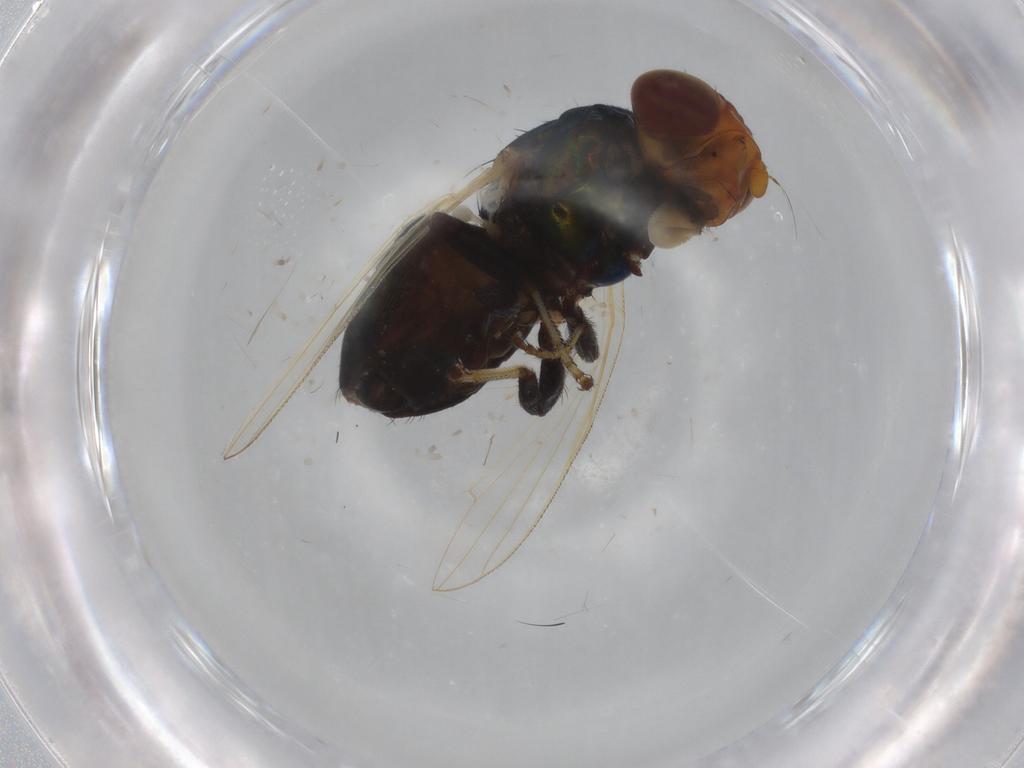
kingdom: Animalia
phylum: Arthropoda
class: Insecta
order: Diptera
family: Ulidiidae
